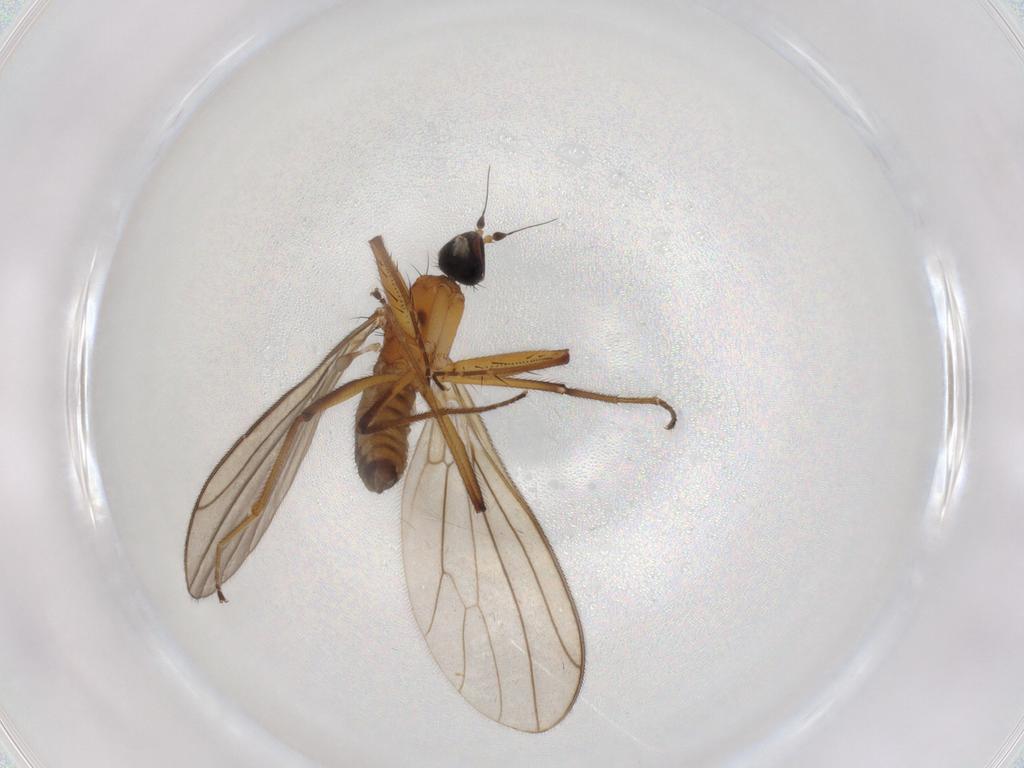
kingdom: Animalia
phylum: Arthropoda
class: Insecta
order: Diptera
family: Empididae
